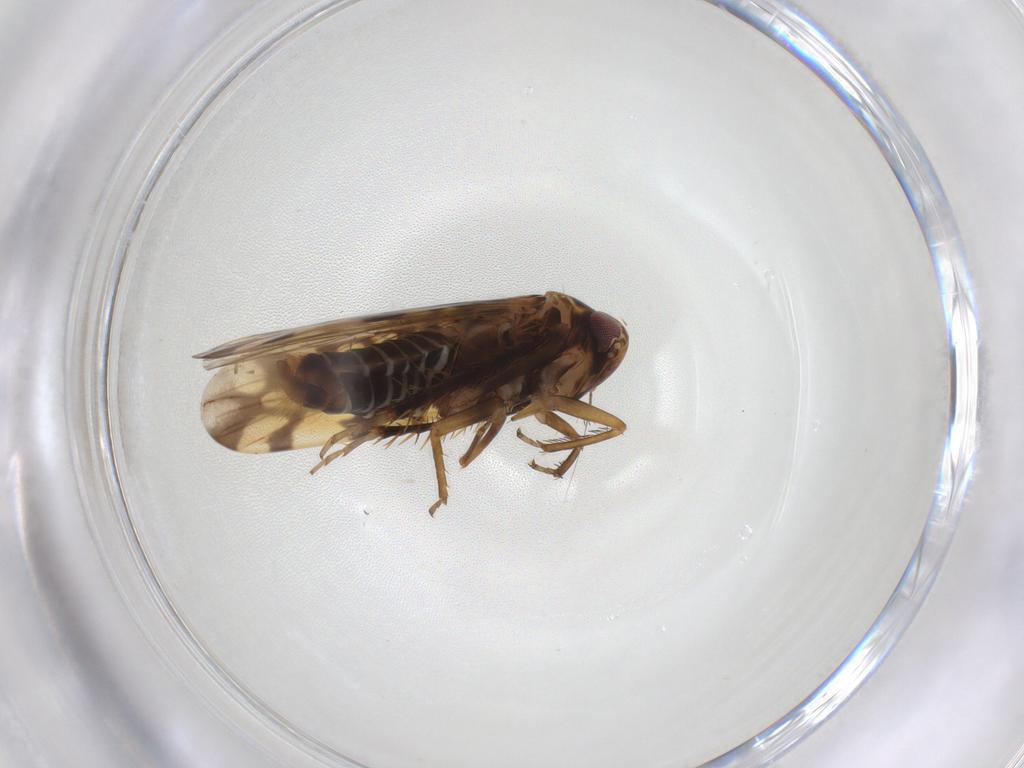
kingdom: Animalia
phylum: Arthropoda
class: Insecta
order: Hemiptera
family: Cicadellidae
